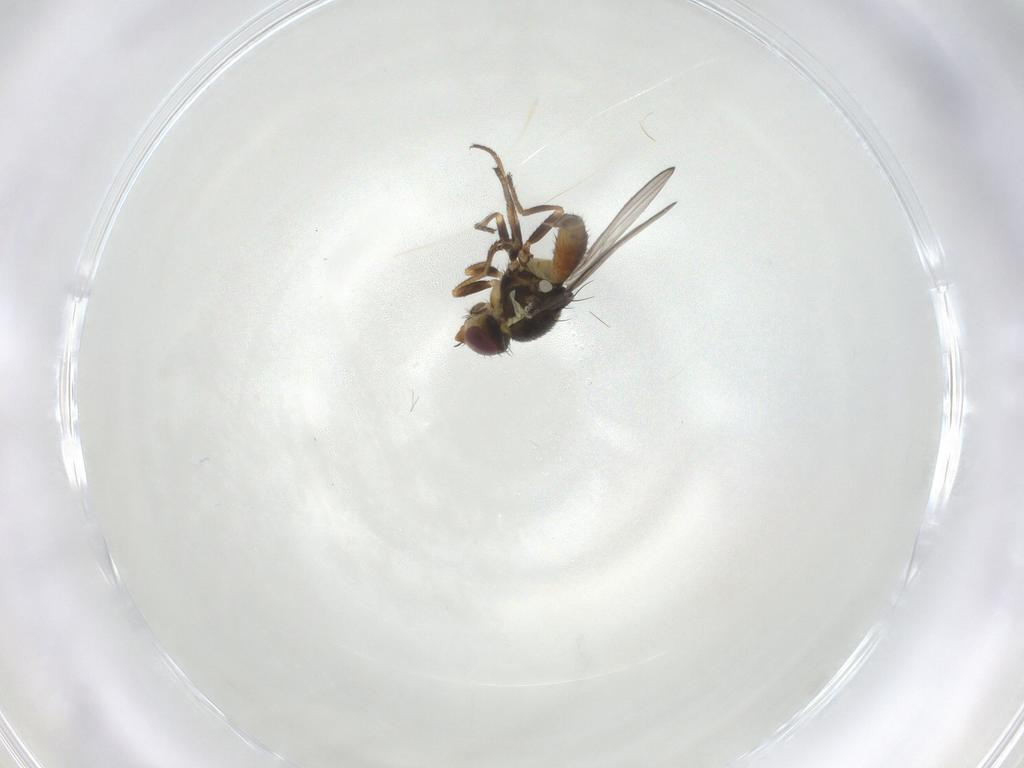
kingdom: Animalia
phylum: Arthropoda
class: Insecta
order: Diptera
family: Chloropidae
